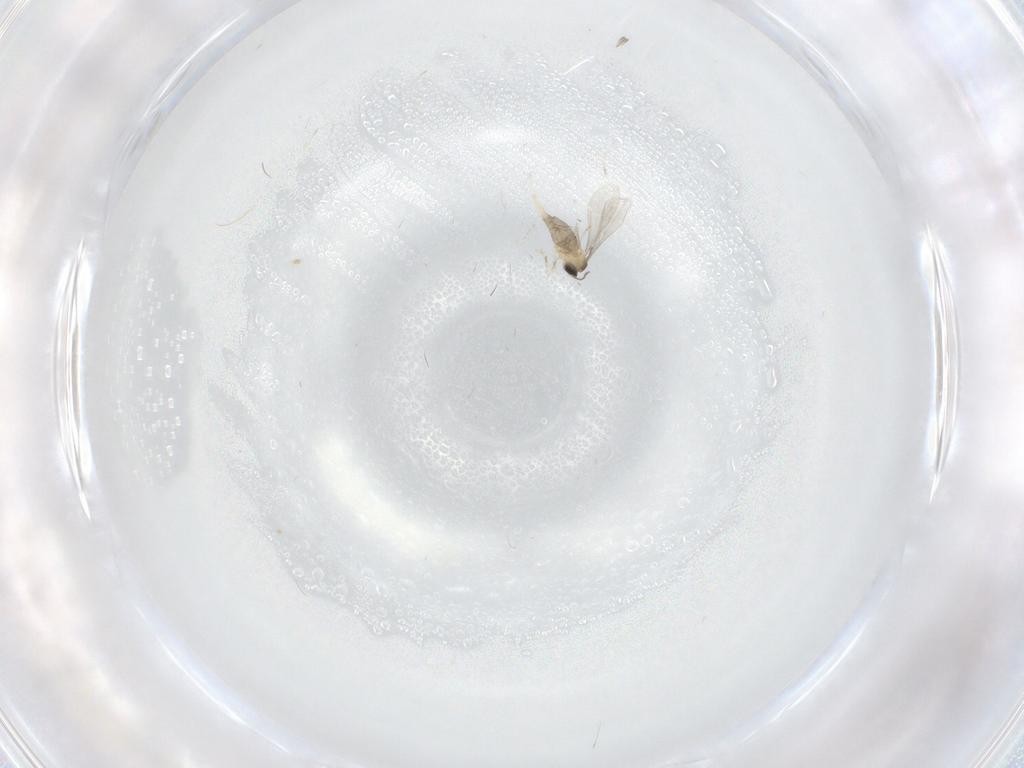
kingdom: Animalia
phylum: Arthropoda
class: Insecta
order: Diptera
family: Cecidomyiidae
